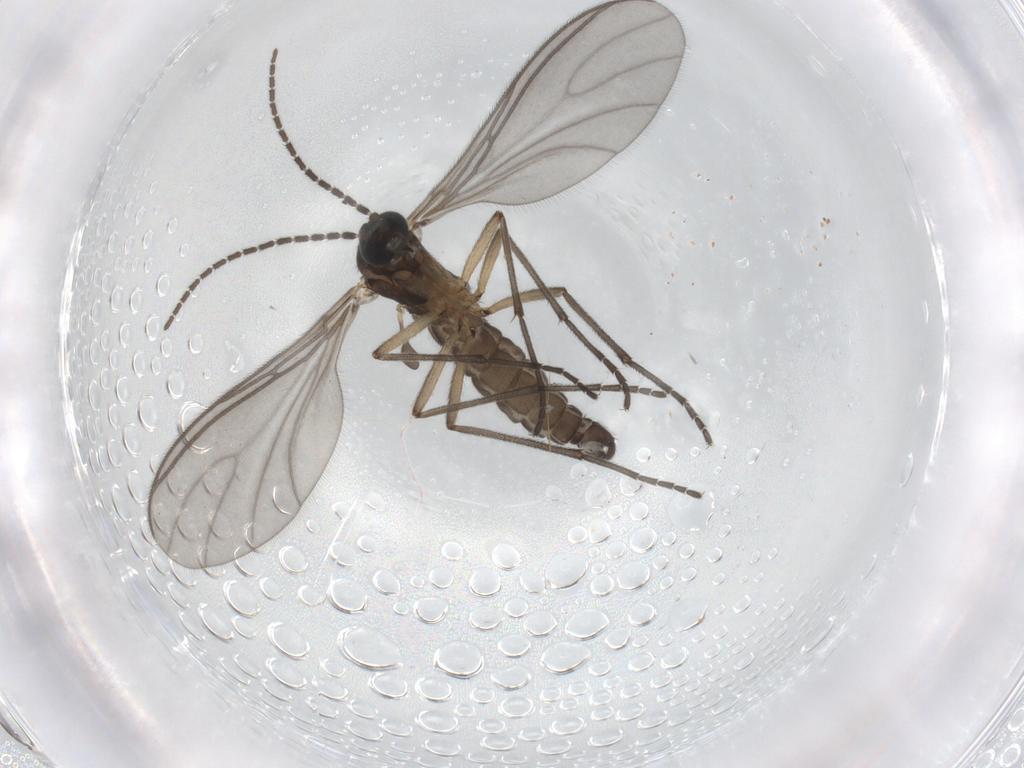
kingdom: Animalia
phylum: Arthropoda
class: Insecta
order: Diptera
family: Sciaridae
